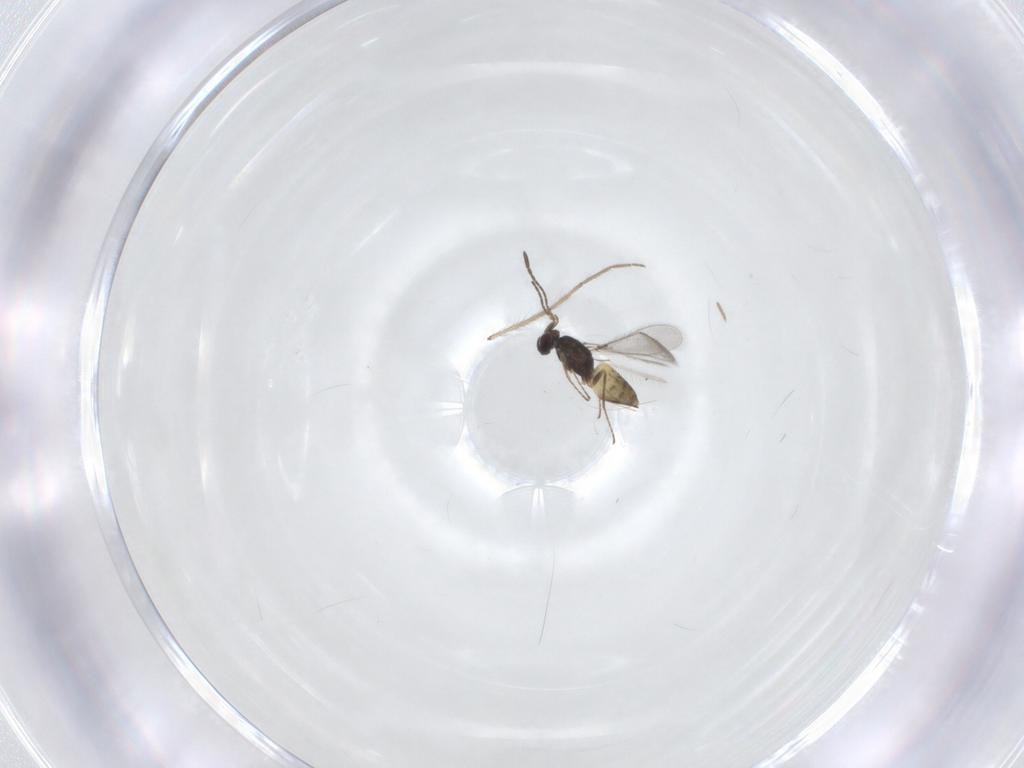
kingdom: Animalia
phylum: Arthropoda
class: Insecta
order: Hymenoptera
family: Mymaridae
